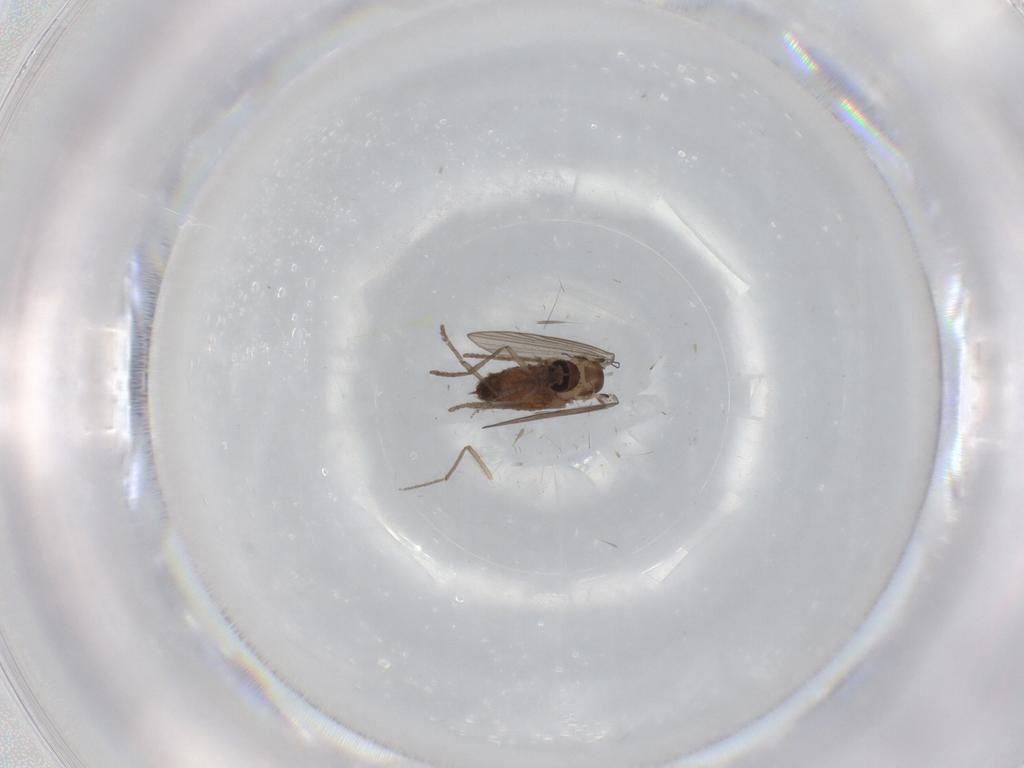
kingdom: Animalia
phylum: Arthropoda
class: Insecta
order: Diptera
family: Psychodidae
